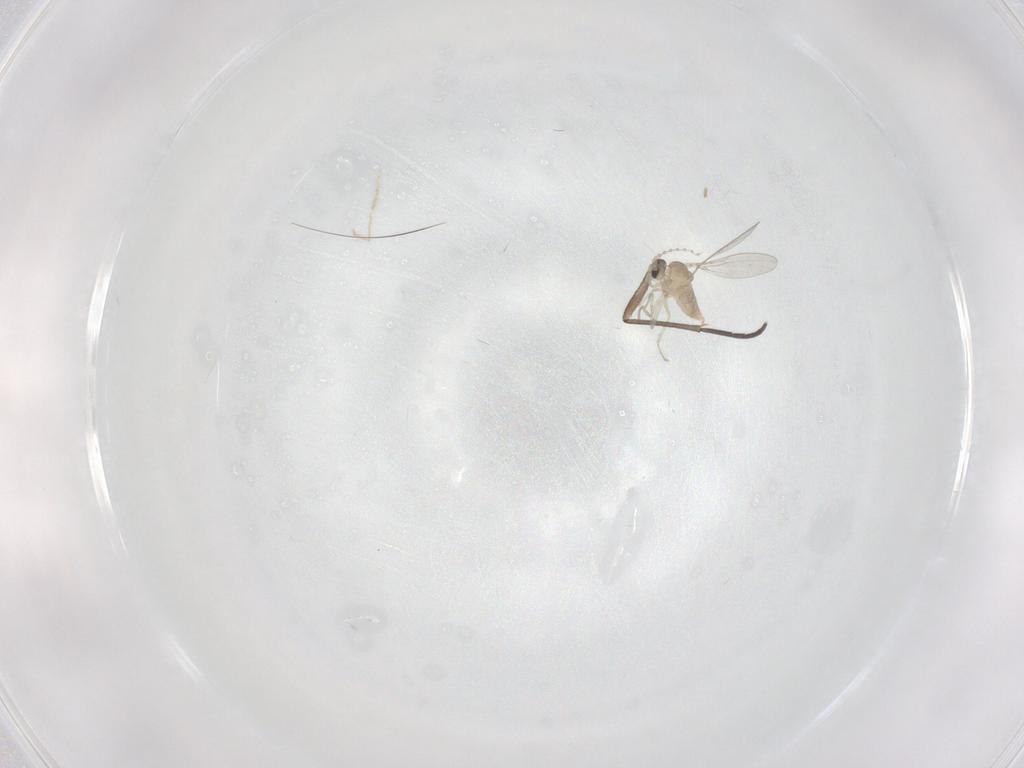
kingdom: Animalia
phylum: Arthropoda
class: Insecta
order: Diptera
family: Cecidomyiidae
